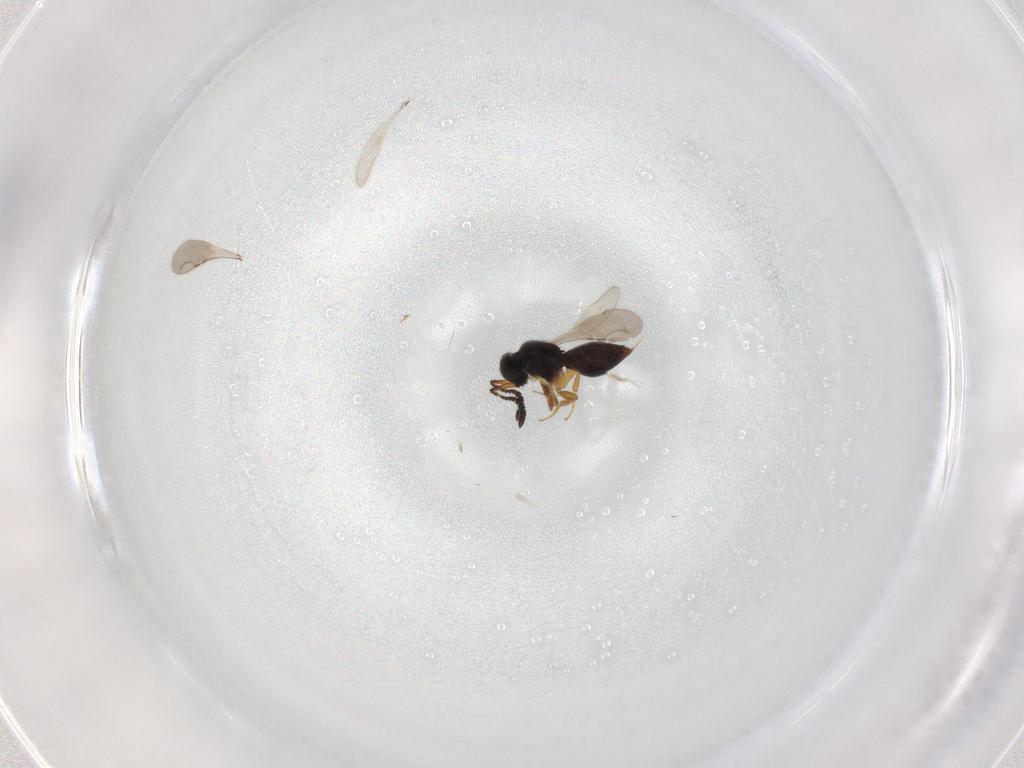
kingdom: Animalia
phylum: Arthropoda
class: Insecta
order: Hymenoptera
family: Ceraphronidae
